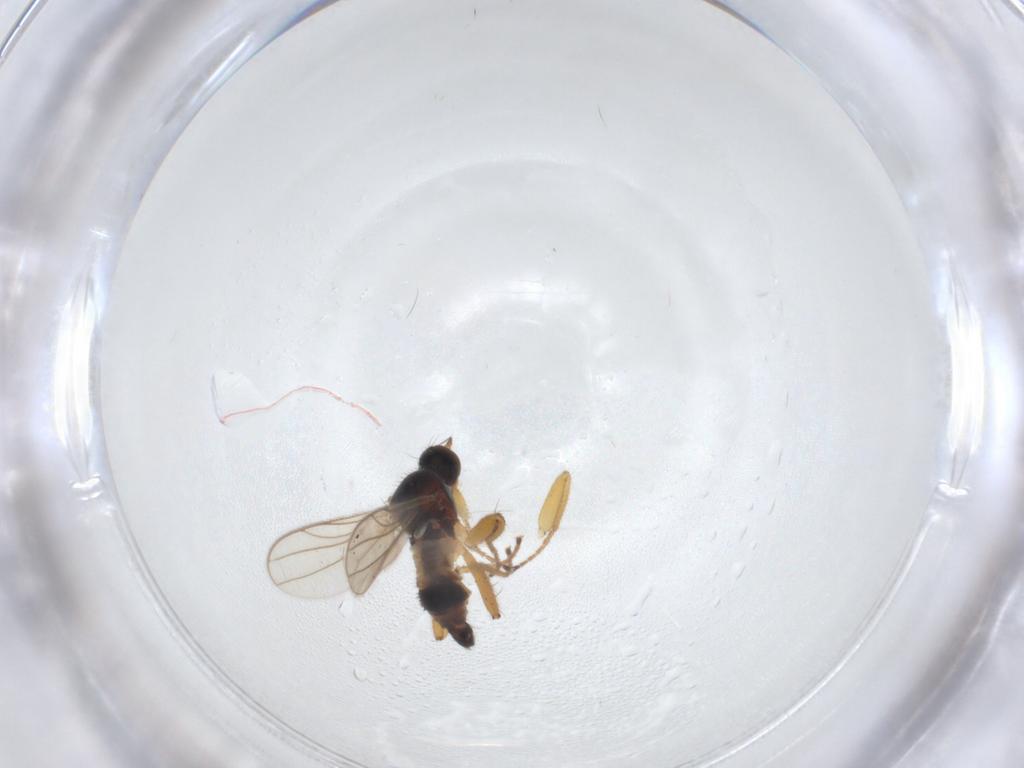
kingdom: Animalia
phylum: Arthropoda
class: Insecta
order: Diptera
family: Hybotidae
